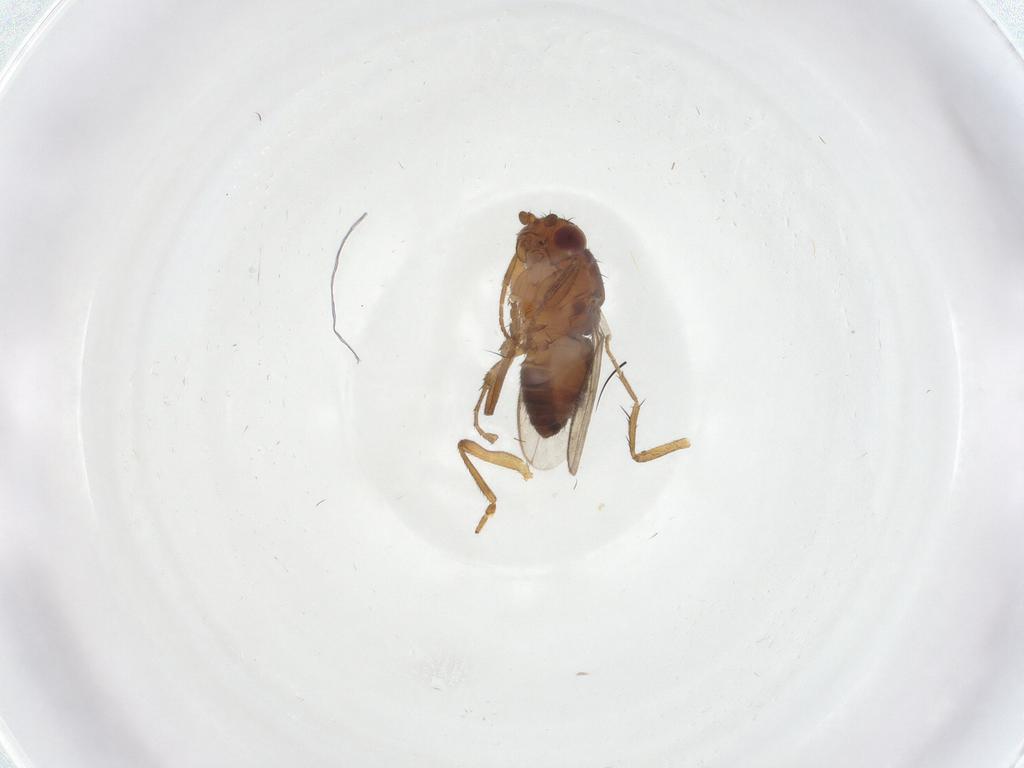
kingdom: Animalia
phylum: Arthropoda
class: Insecta
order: Diptera
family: Sphaeroceridae
